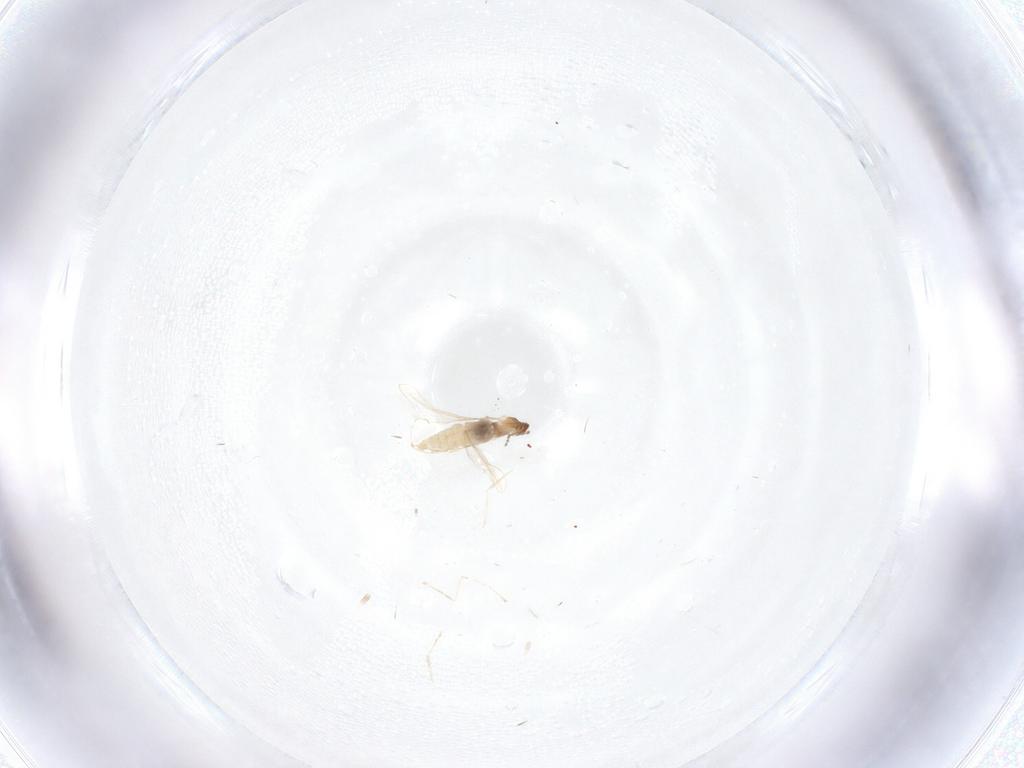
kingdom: Animalia
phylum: Arthropoda
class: Insecta
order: Diptera
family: Cecidomyiidae
